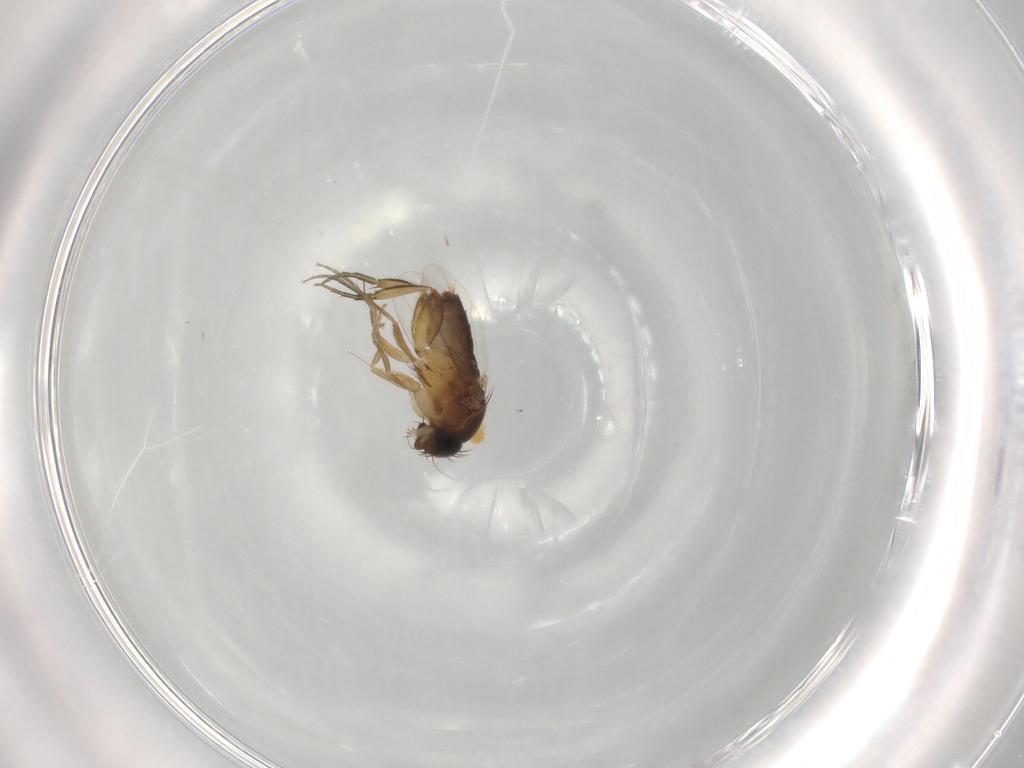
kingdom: Animalia
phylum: Arthropoda
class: Insecta
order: Diptera
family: Phoridae
